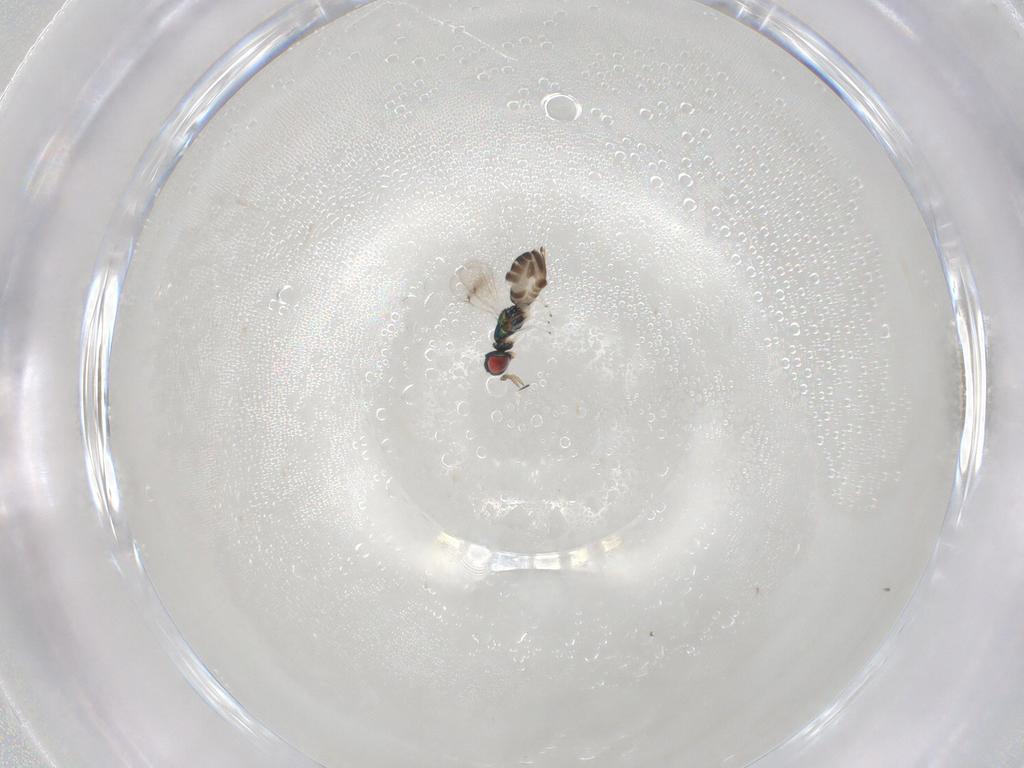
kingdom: Animalia
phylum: Arthropoda
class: Insecta
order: Hymenoptera
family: Eulophidae
